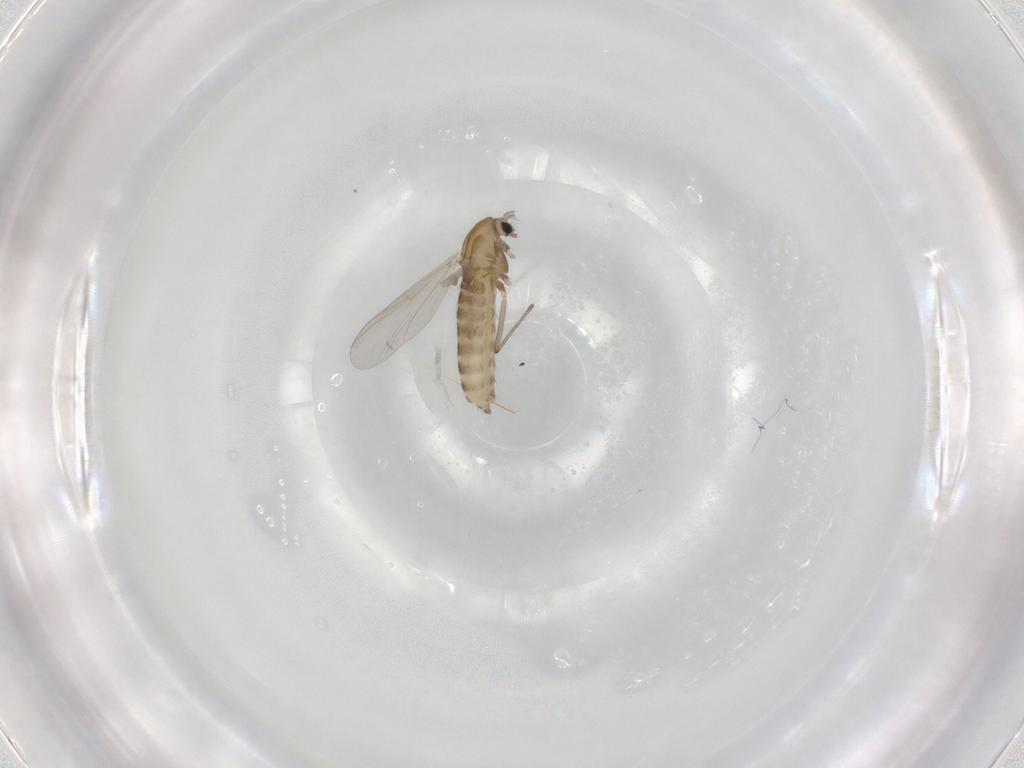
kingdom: Animalia
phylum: Arthropoda
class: Insecta
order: Diptera
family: Chironomidae
